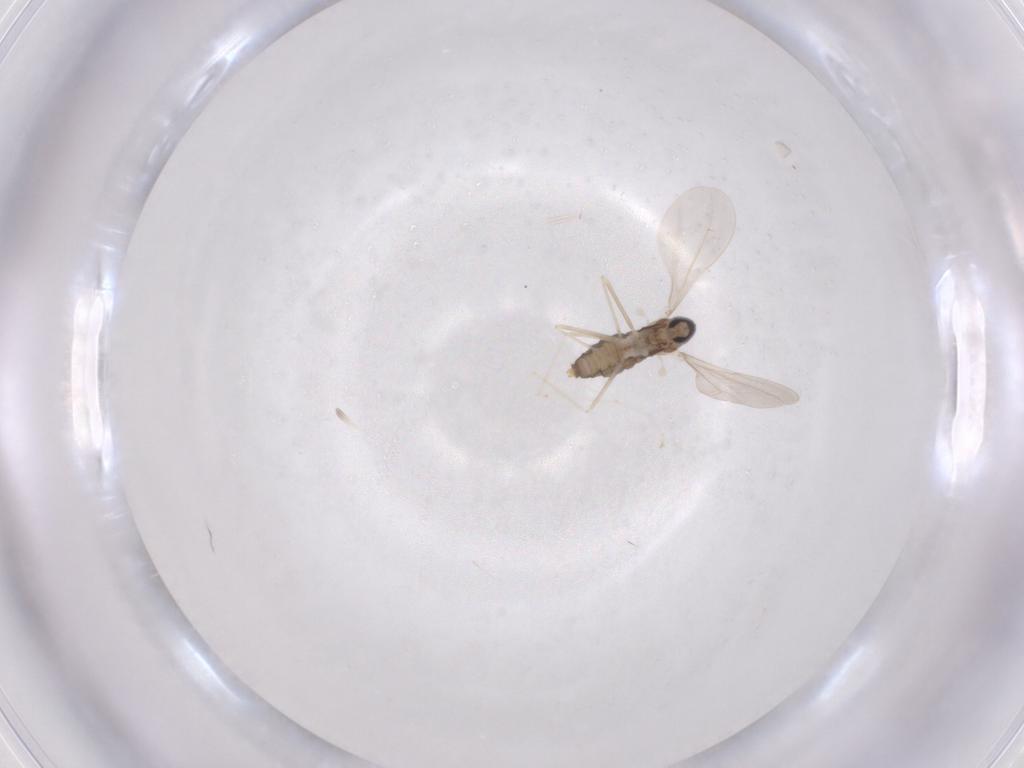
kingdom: Animalia
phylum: Arthropoda
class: Insecta
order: Diptera
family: Cecidomyiidae
